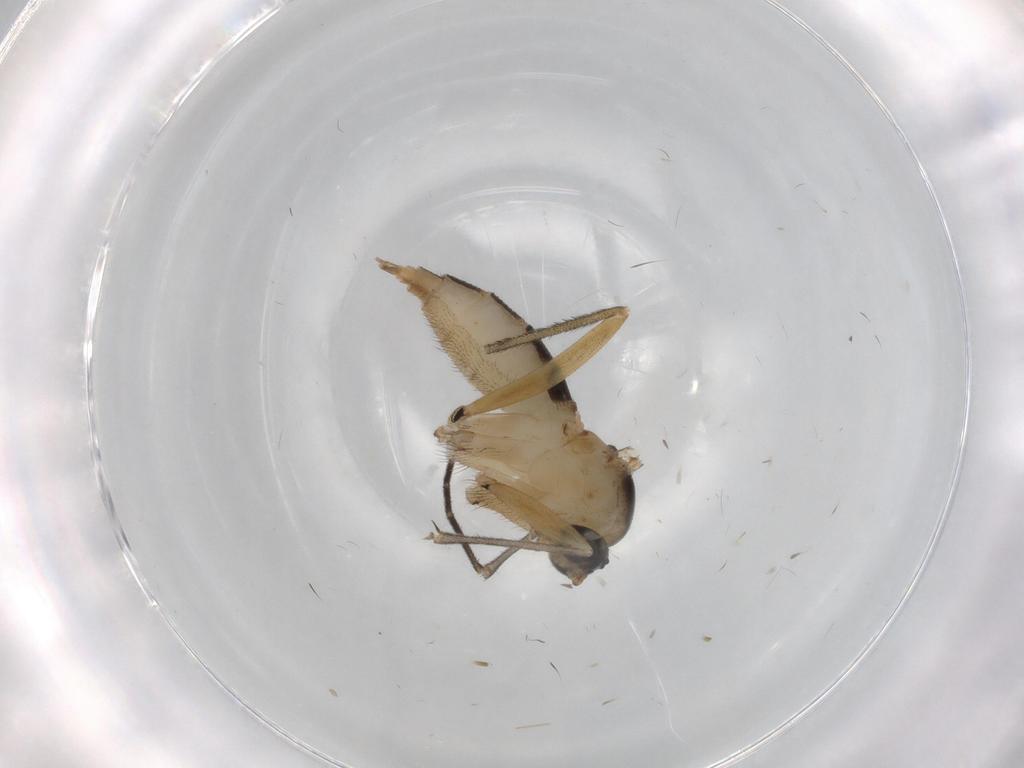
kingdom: Animalia
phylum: Arthropoda
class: Insecta
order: Diptera
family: Sciaridae
